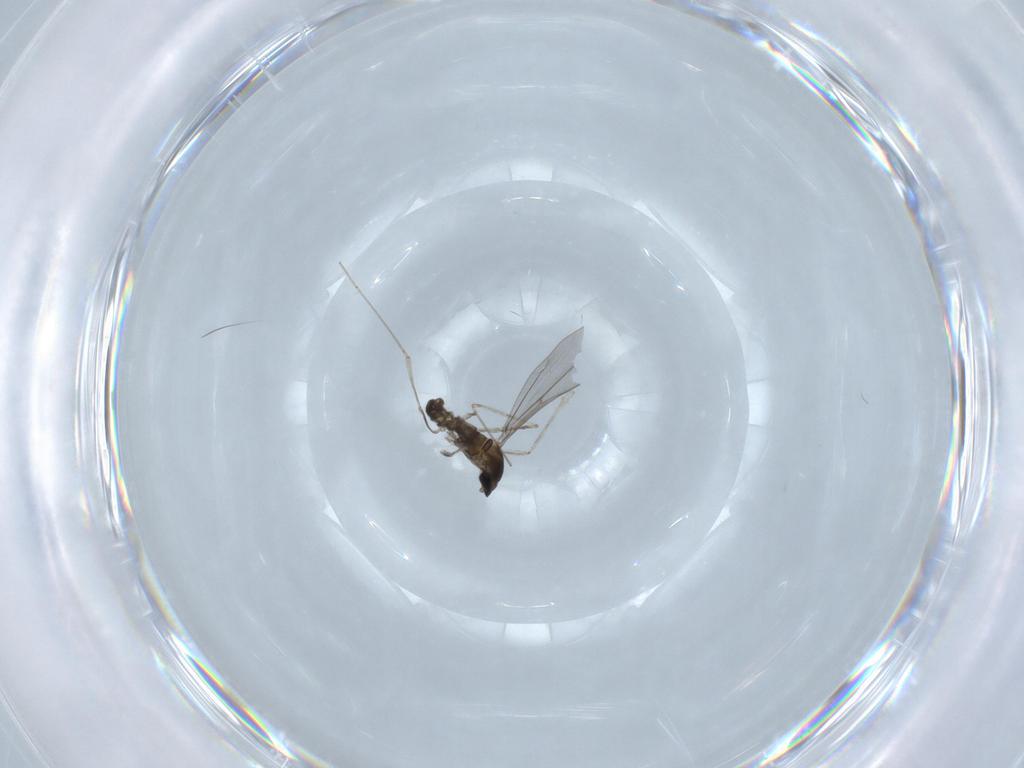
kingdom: Animalia
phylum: Arthropoda
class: Insecta
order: Diptera
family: Cecidomyiidae
